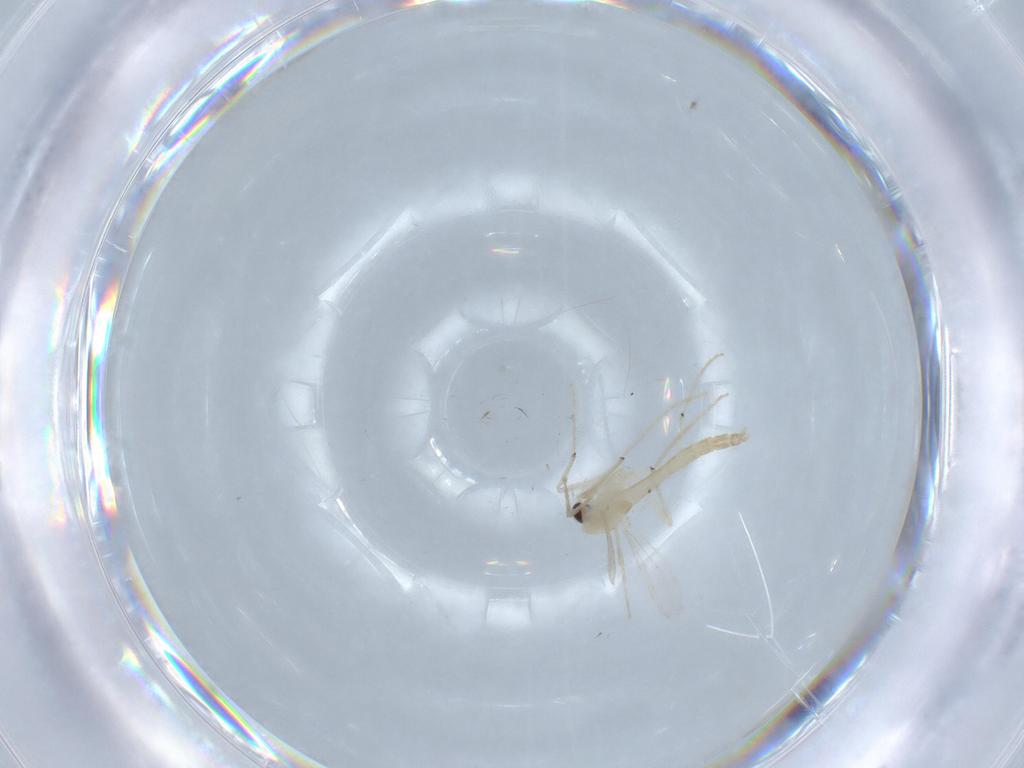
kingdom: Animalia
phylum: Arthropoda
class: Insecta
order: Diptera
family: Chironomidae
